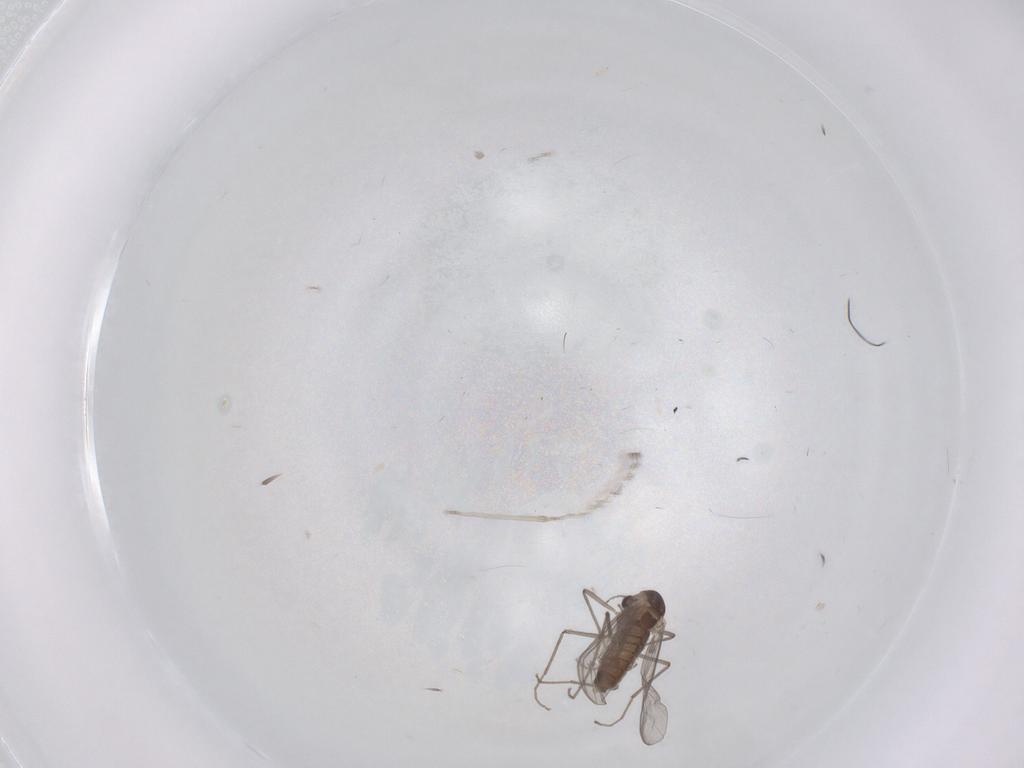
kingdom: Animalia
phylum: Arthropoda
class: Insecta
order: Diptera
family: Chironomidae
